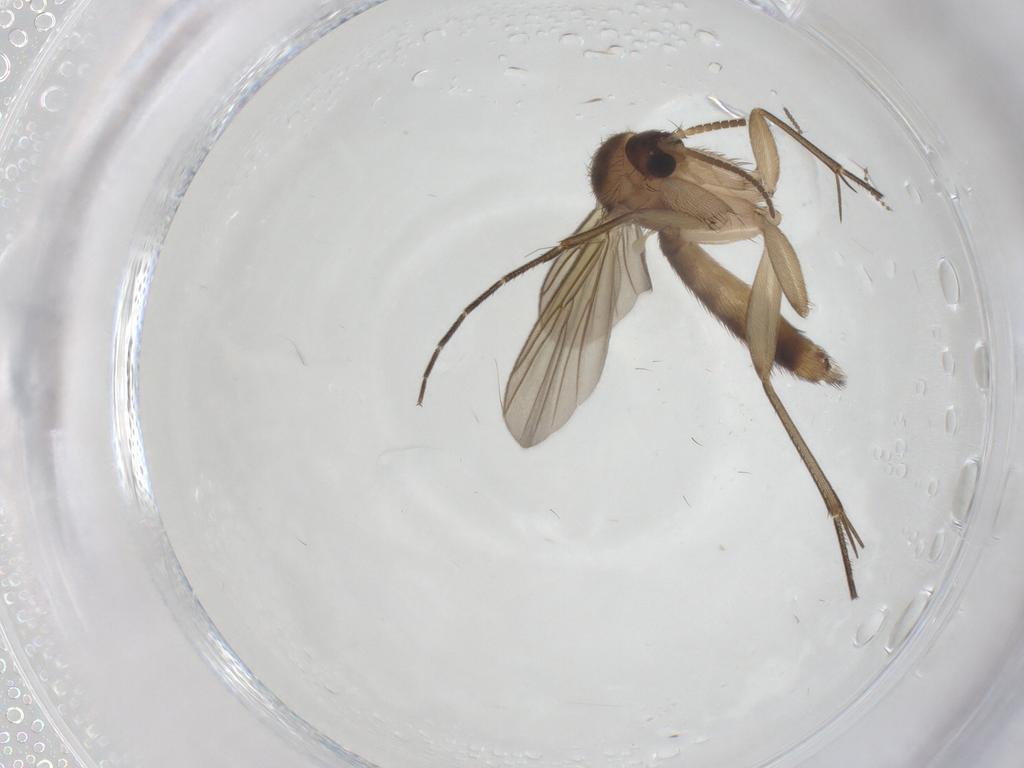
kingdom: Animalia
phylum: Arthropoda
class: Insecta
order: Diptera
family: Mycetophilidae
